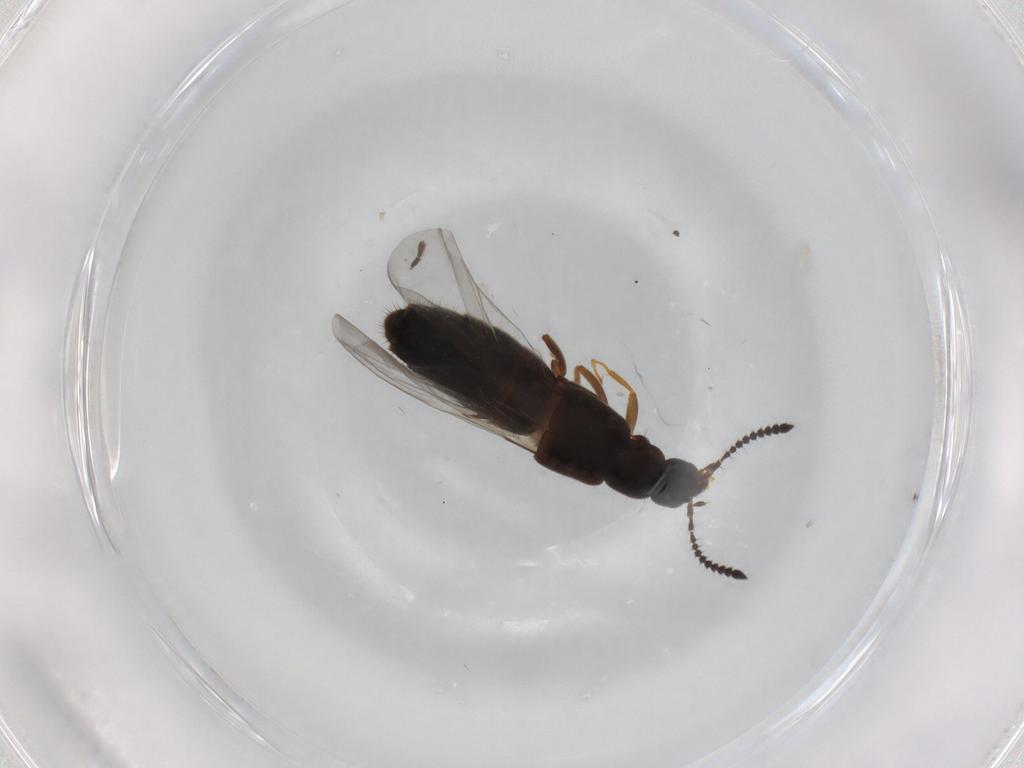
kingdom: Animalia
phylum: Arthropoda
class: Insecta
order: Coleoptera
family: Staphylinidae
